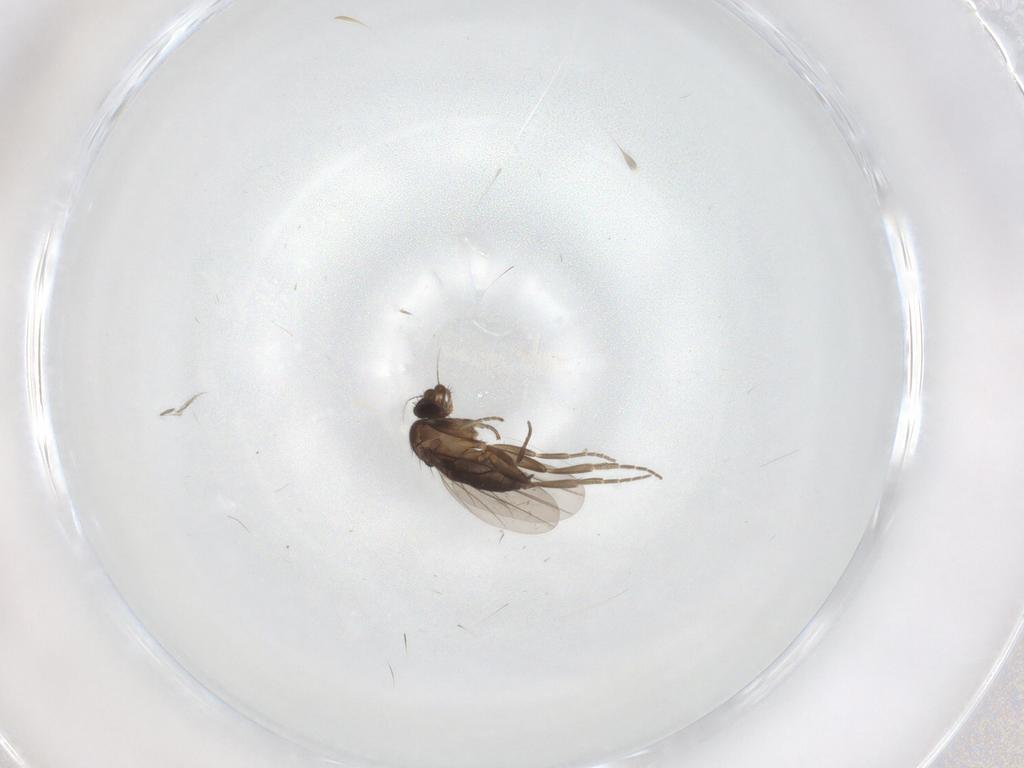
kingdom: Animalia
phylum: Arthropoda
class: Insecta
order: Diptera
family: Phoridae
